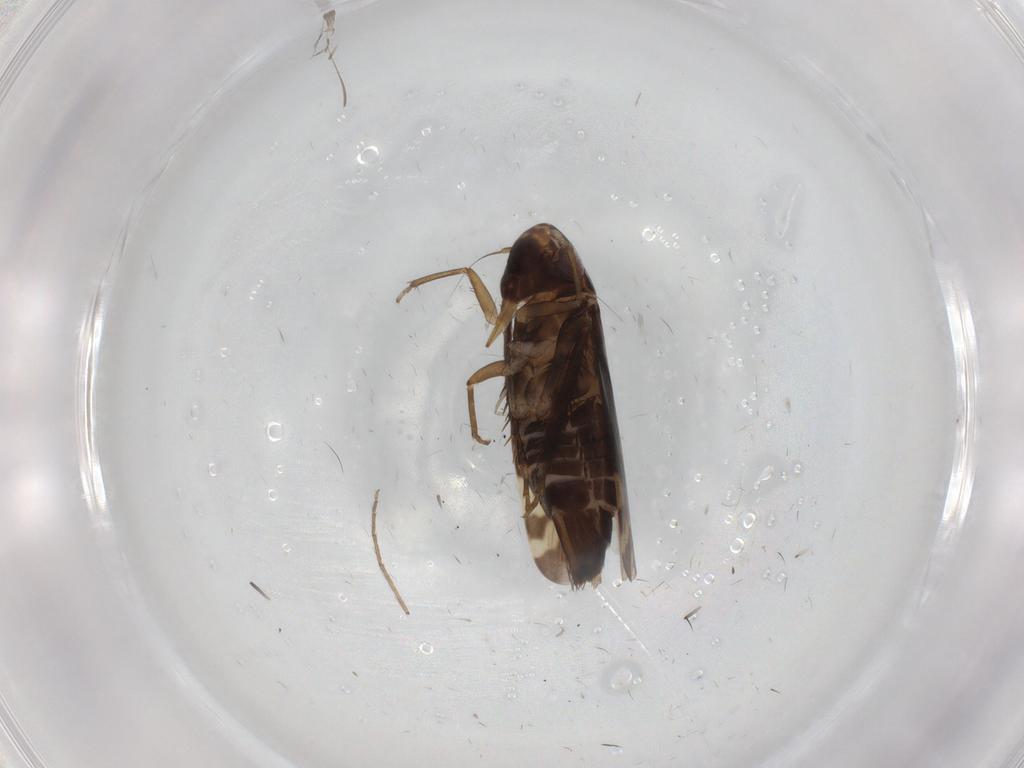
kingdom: Animalia
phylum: Arthropoda
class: Insecta
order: Hemiptera
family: Cicadellidae
